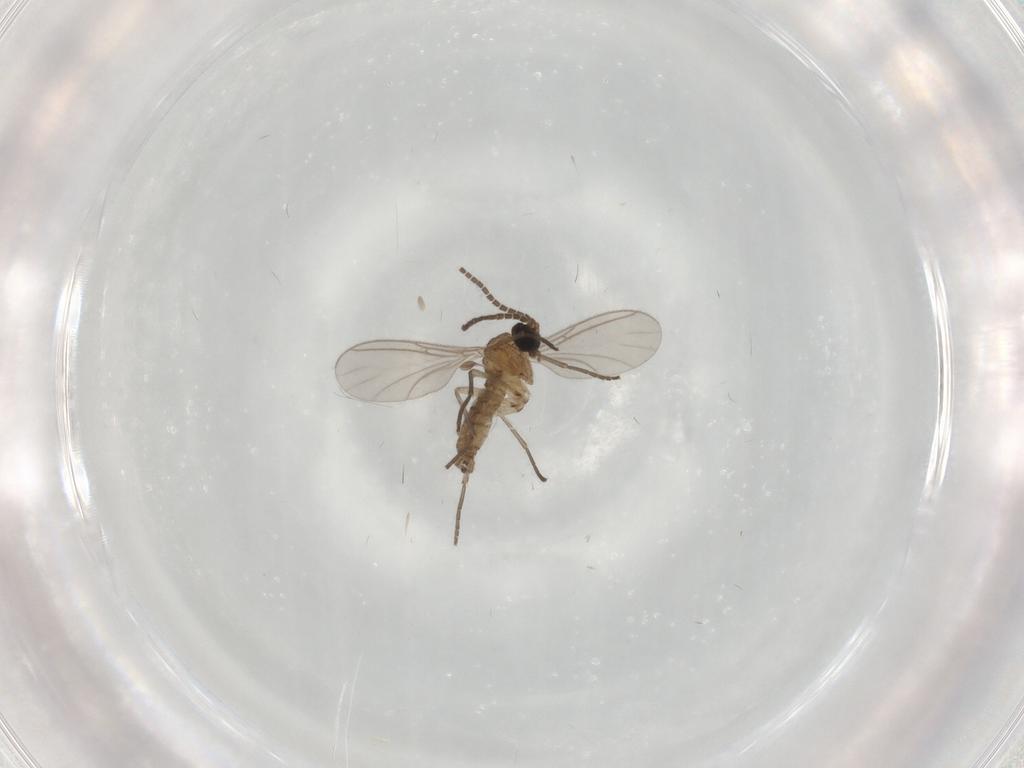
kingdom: Animalia
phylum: Arthropoda
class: Insecta
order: Diptera
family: Sciaridae
